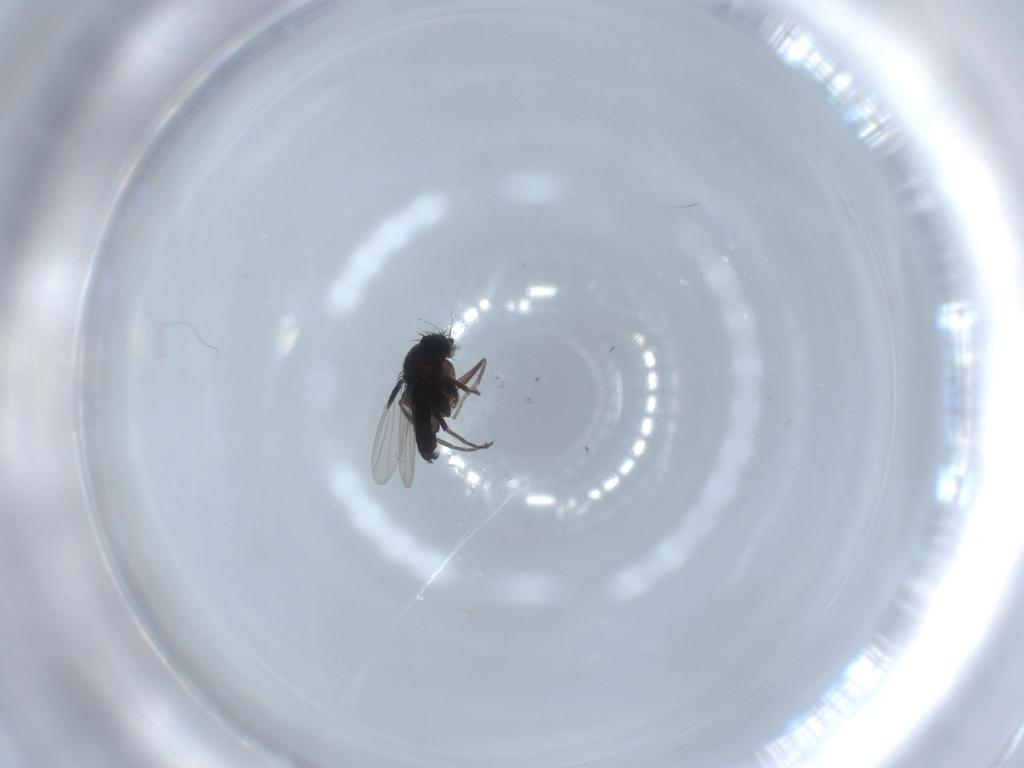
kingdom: Animalia
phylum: Arthropoda
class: Insecta
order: Diptera
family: Phoridae
